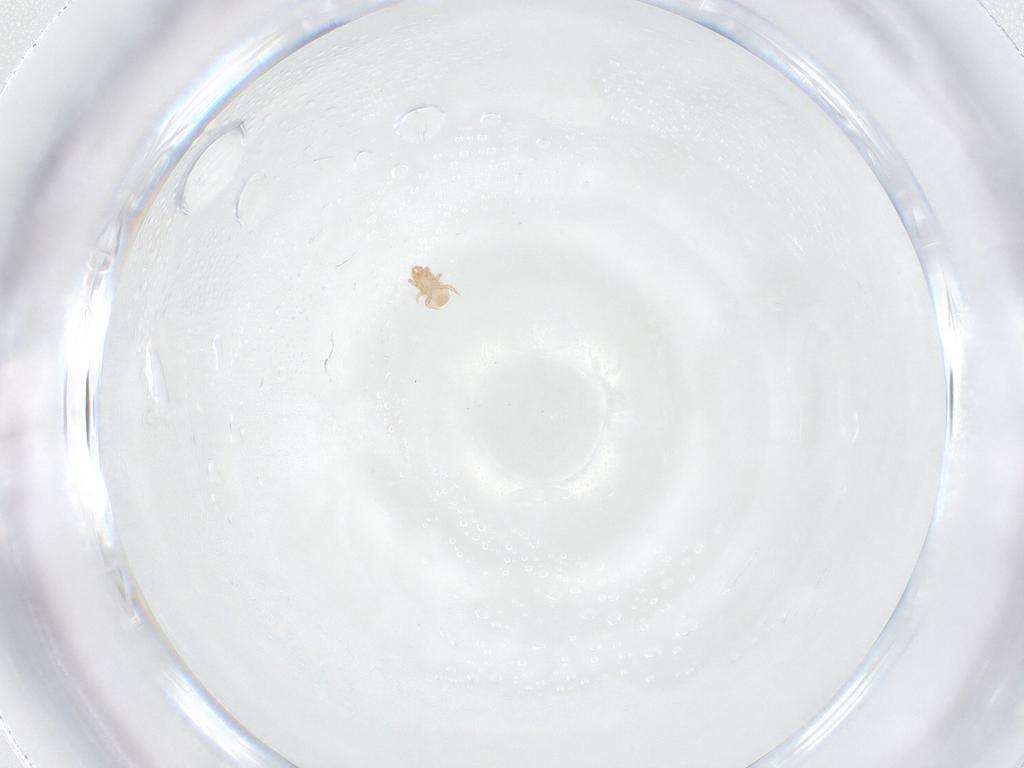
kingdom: Animalia
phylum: Arthropoda
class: Arachnida
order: Mesostigmata
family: Digamasellidae
